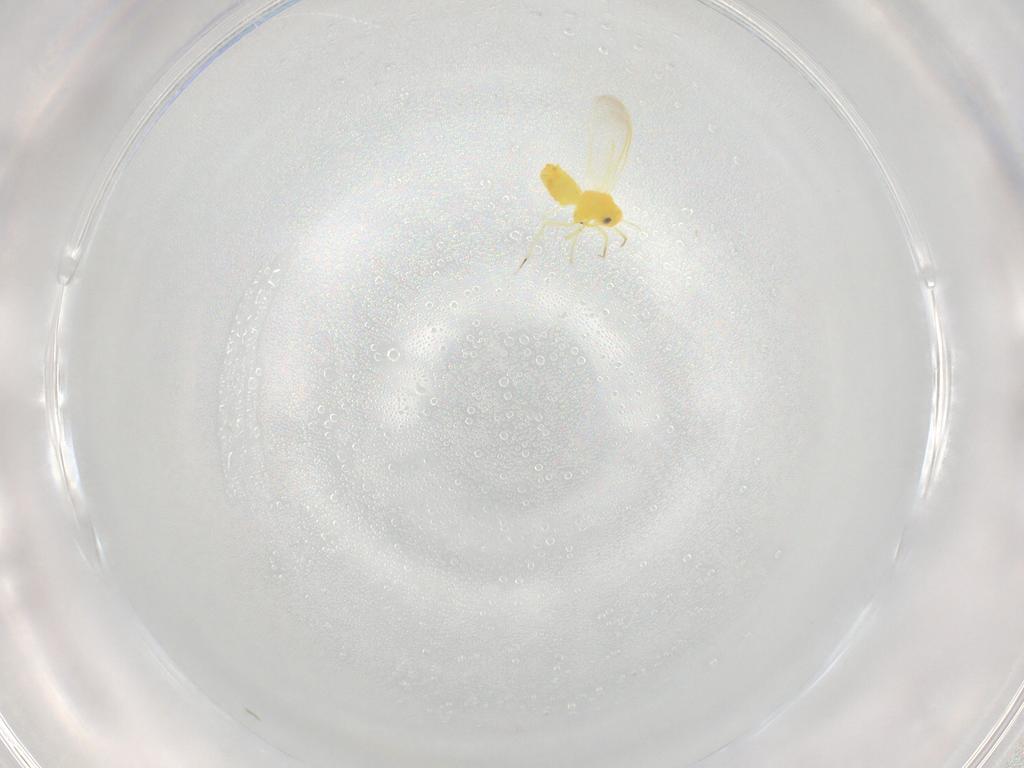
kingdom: Animalia
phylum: Arthropoda
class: Insecta
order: Hemiptera
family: Aleyrodidae
